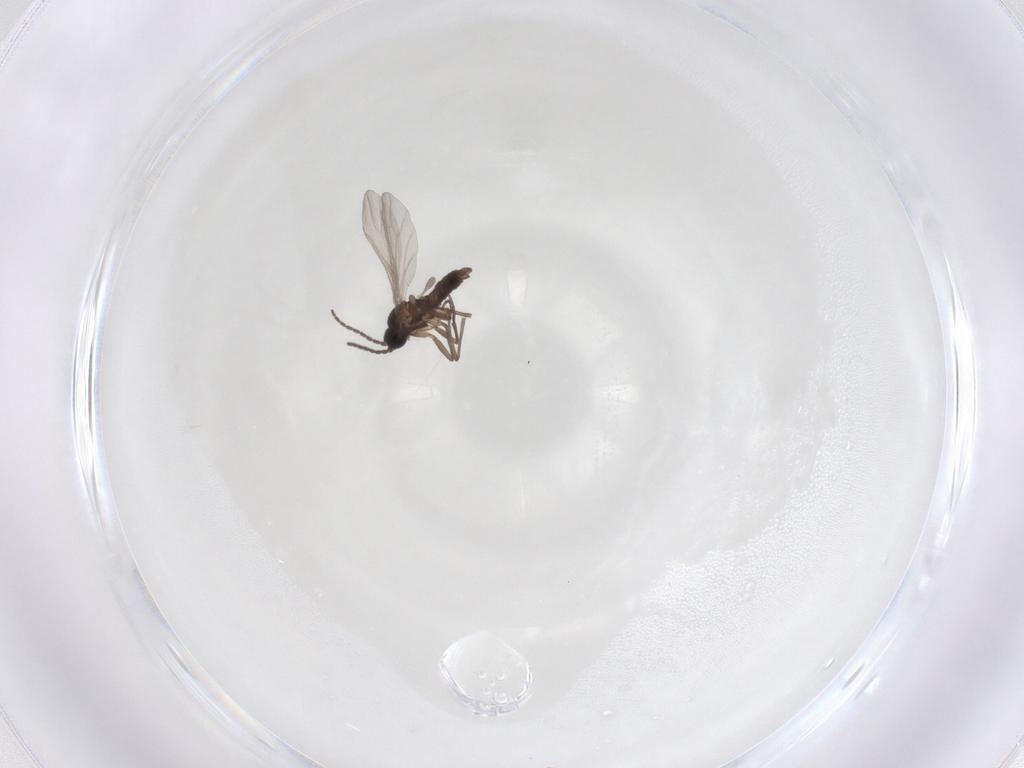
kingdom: Animalia
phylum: Arthropoda
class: Insecta
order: Diptera
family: Sciaridae
